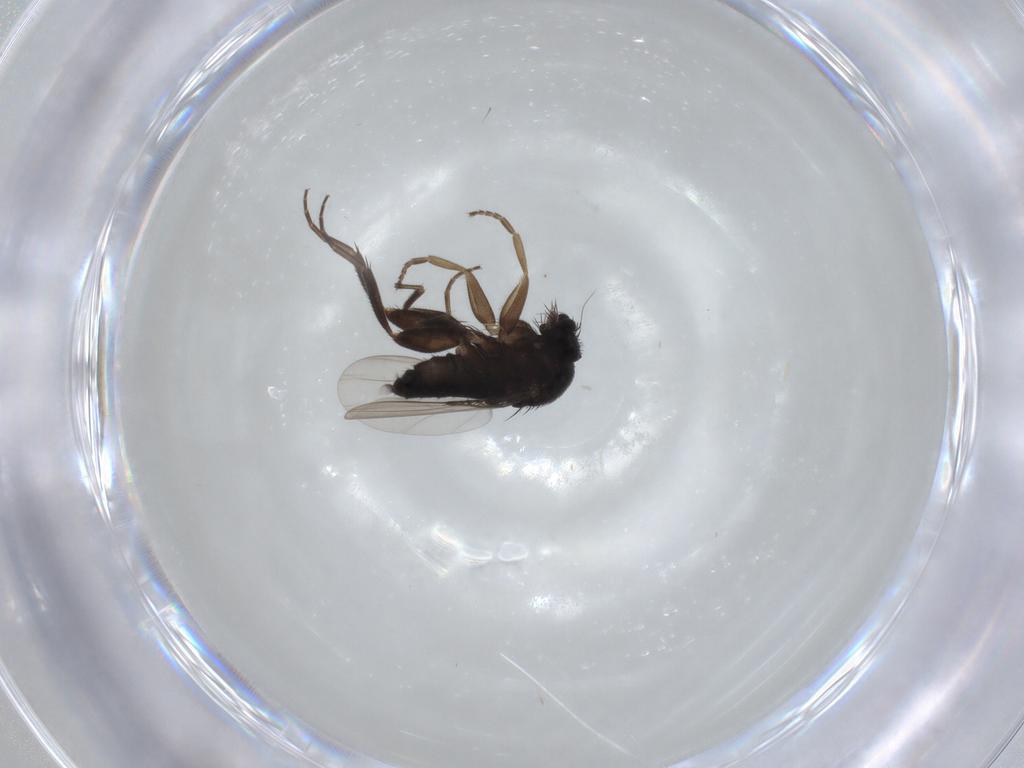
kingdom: Animalia
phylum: Arthropoda
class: Insecta
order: Diptera
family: Phoridae
